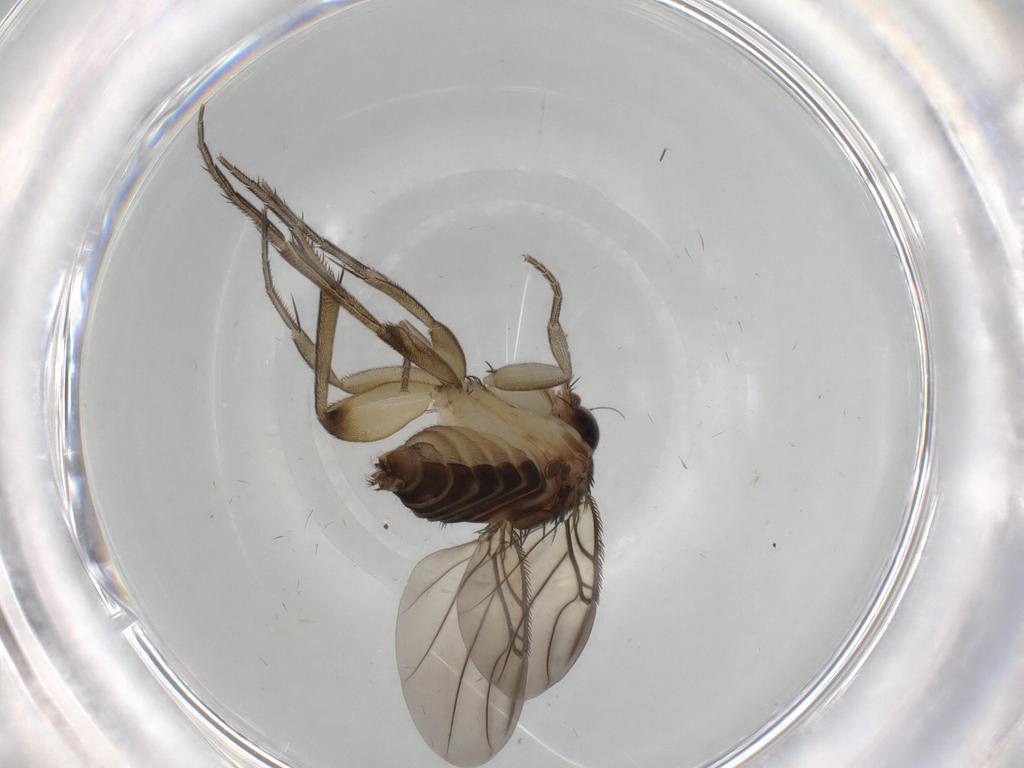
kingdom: Animalia
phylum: Arthropoda
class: Insecta
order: Diptera
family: Phoridae
